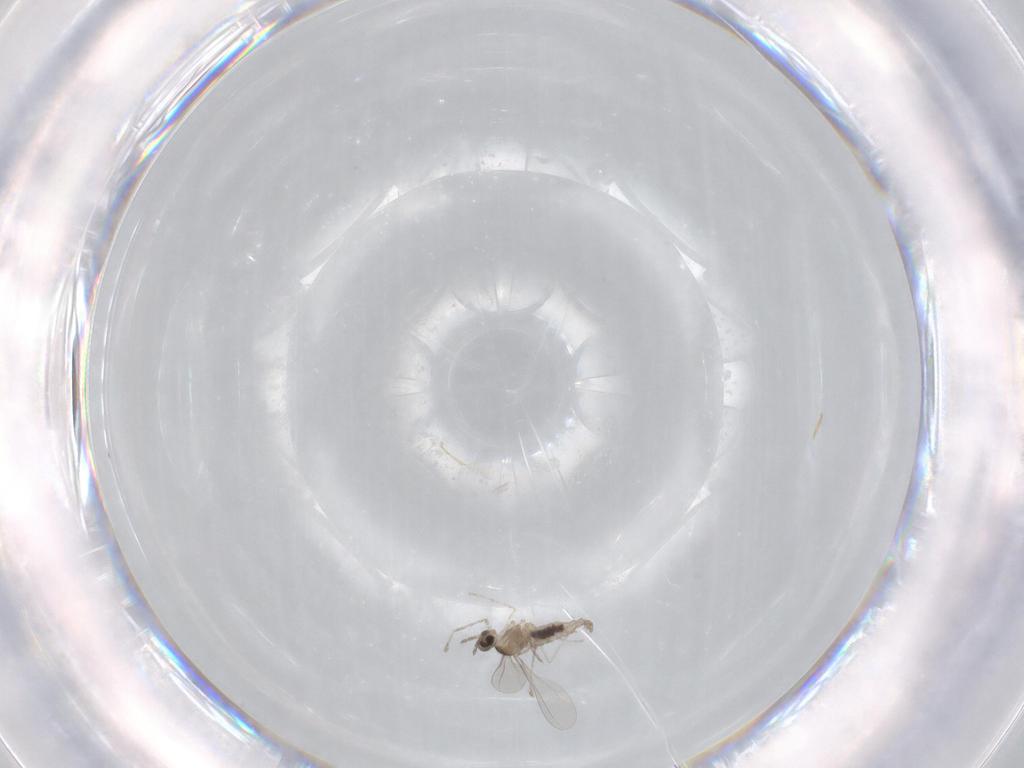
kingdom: Animalia
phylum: Arthropoda
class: Insecta
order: Diptera
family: Cecidomyiidae
